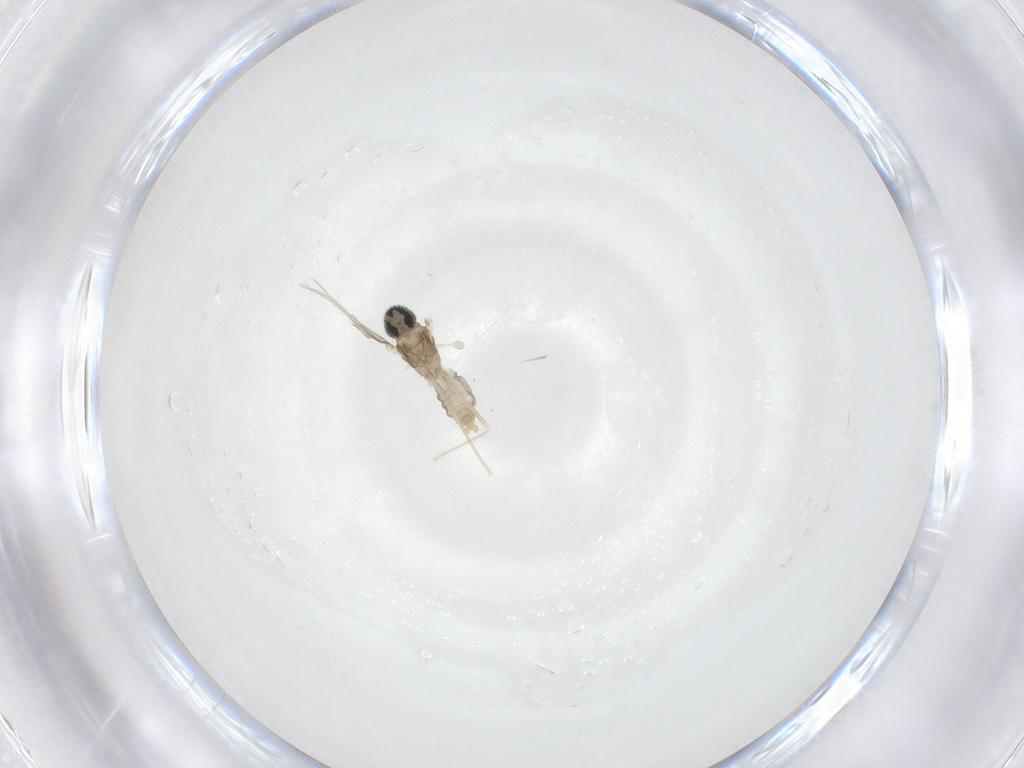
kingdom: Animalia
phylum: Arthropoda
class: Insecta
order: Diptera
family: Cecidomyiidae
